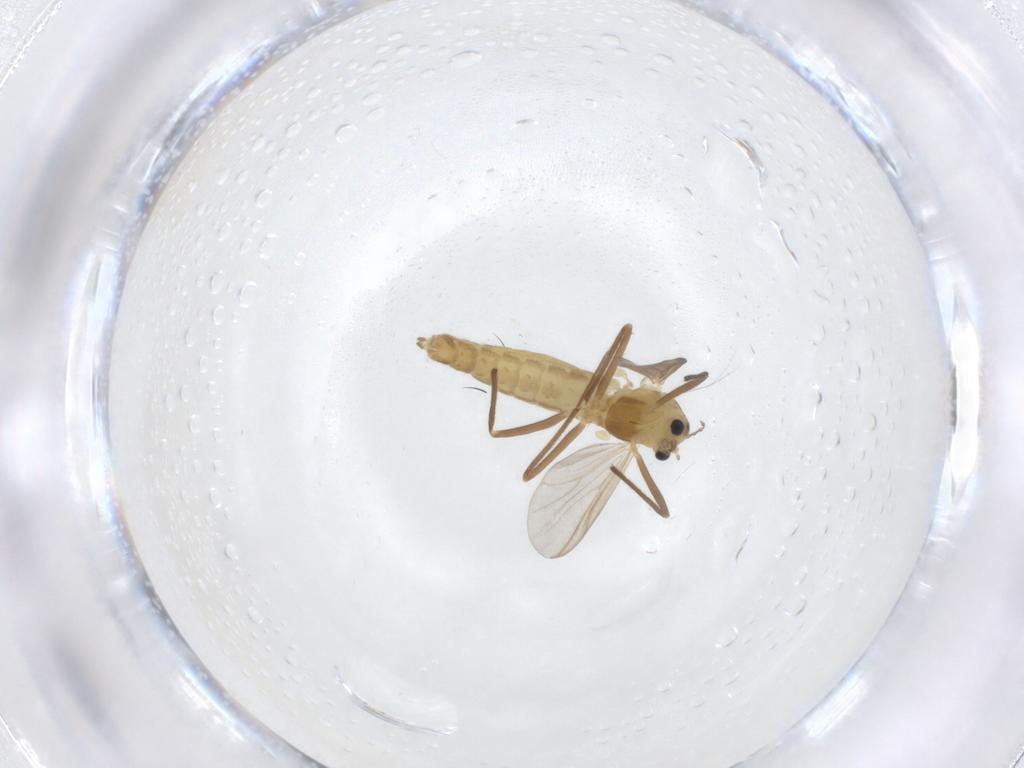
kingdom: Animalia
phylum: Arthropoda
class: Insecta
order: Diptera
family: Chironomidae
